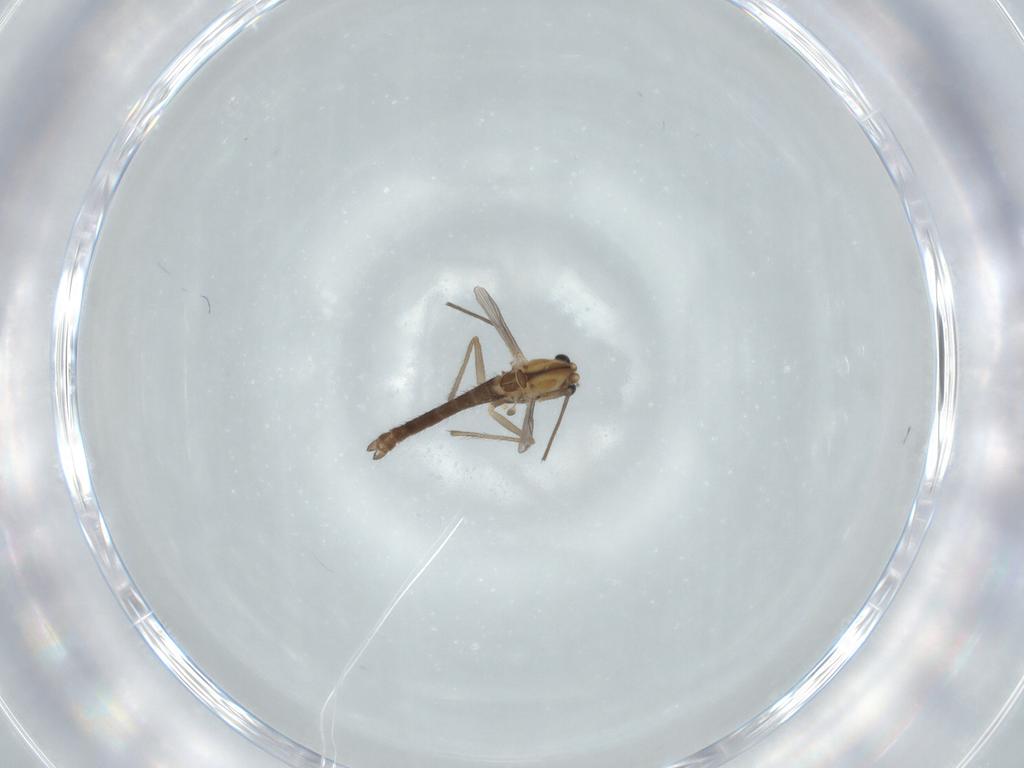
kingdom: Animalia
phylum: Arthropoda
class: Insecta
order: Diptera
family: Chironomidae
